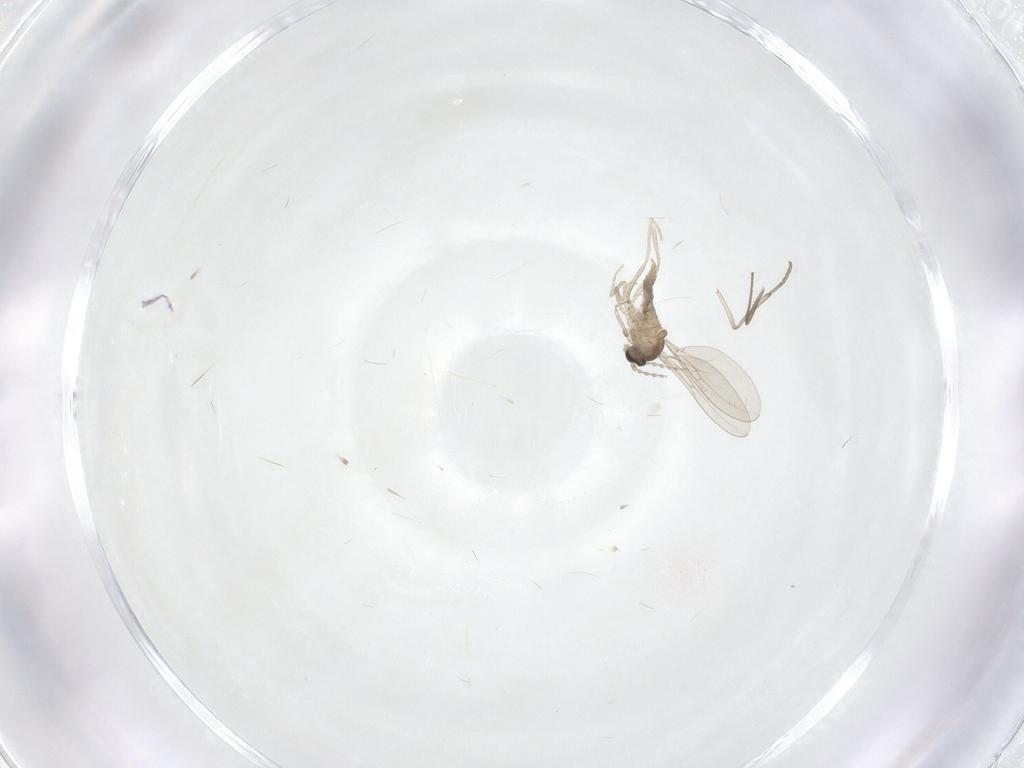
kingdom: Animalia
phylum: Arthropoda
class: Insecta
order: Diptera
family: Cecidomyiidae
